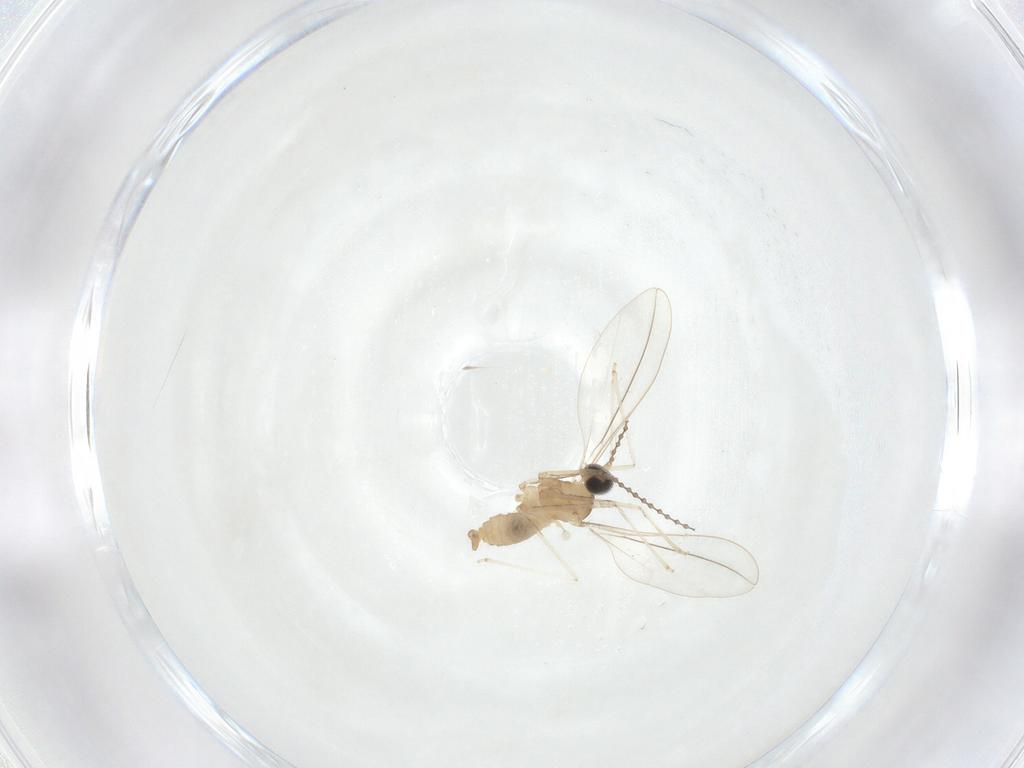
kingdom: Animalia
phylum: Arthropoda
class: Insecta
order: Diptera
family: Cecidomyiidae
